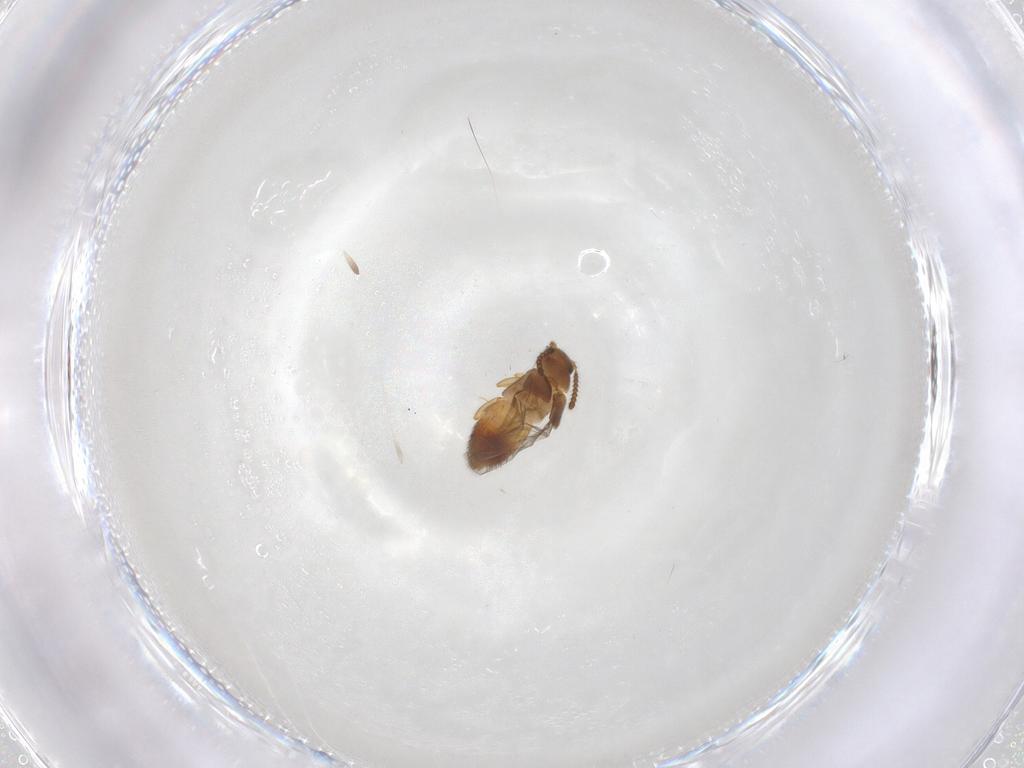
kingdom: Animalia
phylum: Arthropoda
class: Insecta
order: Coleoptera
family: Staphylinidae
